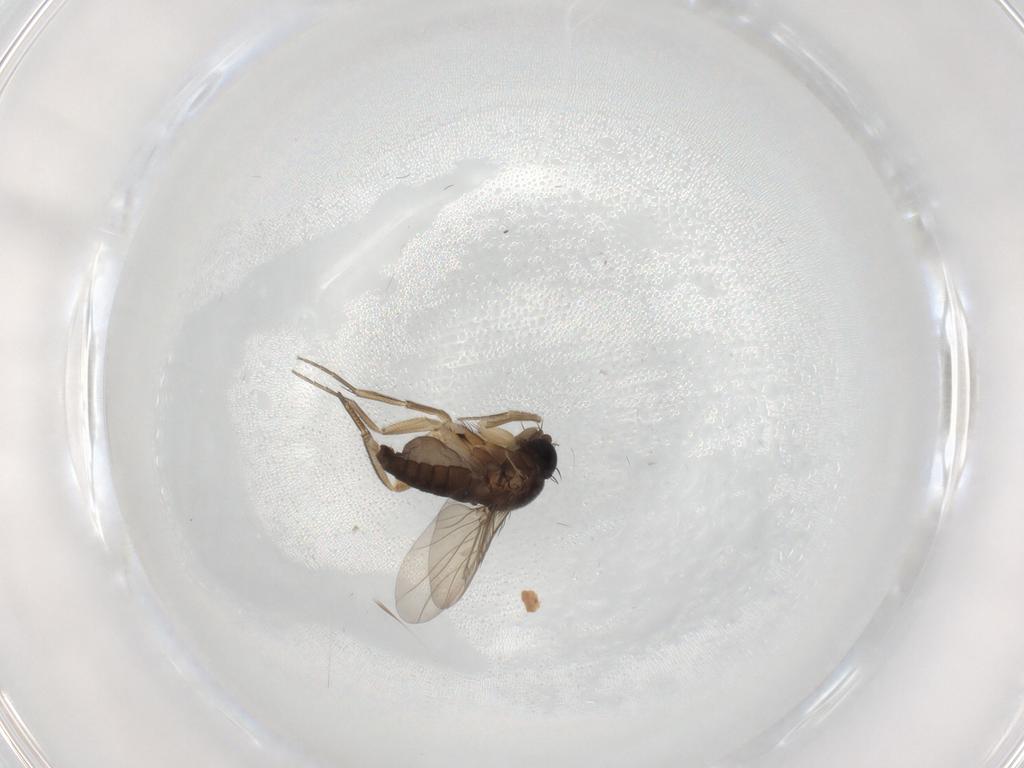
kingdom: Animalia
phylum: Arthropoda
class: Insecta
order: Diptera
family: Phoridae
